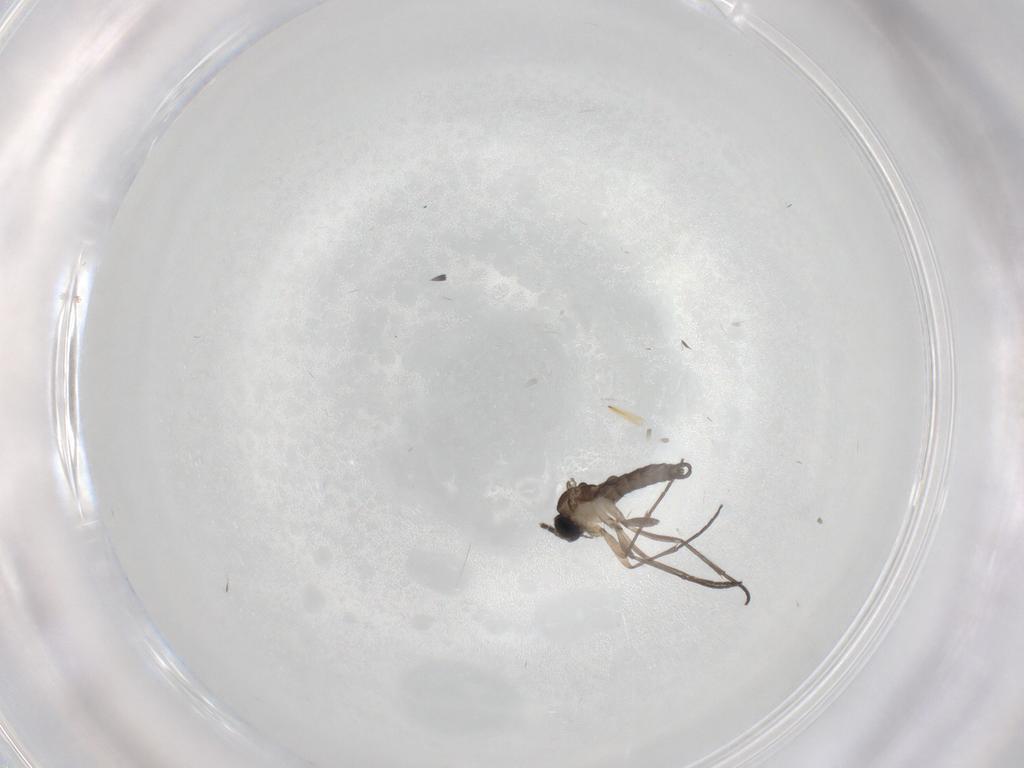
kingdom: Animalia
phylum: Arthropoda
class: Insecta
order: Diptera
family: Sciaridae
